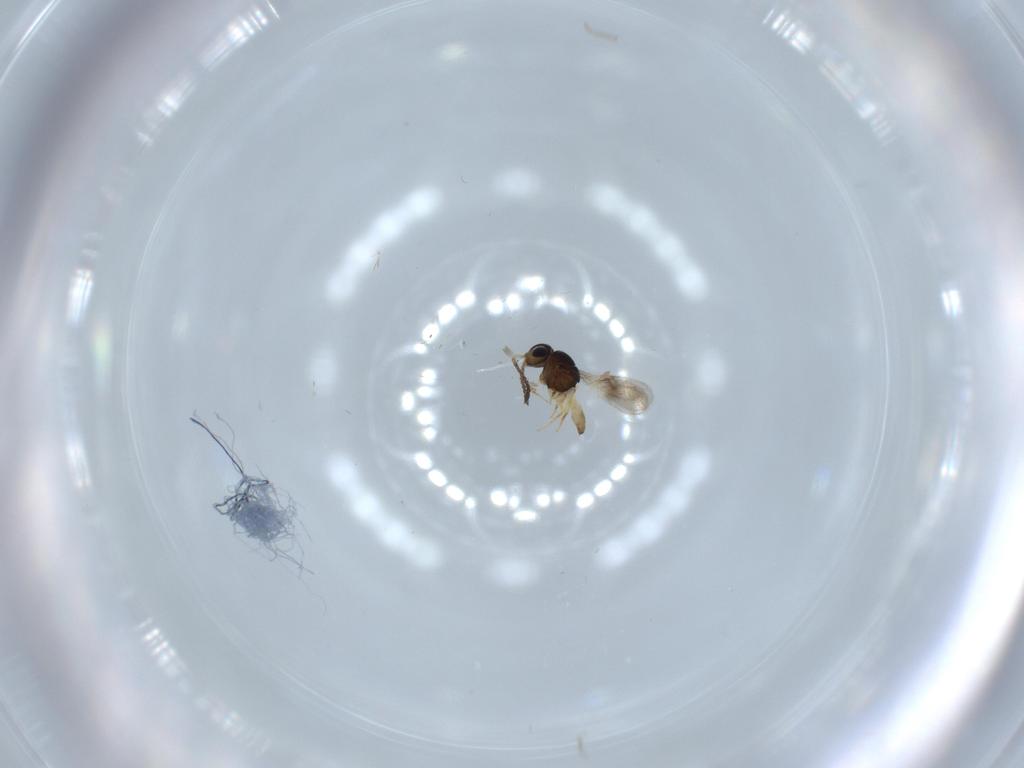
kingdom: Animalia
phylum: Arthropoda
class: Insecta
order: Hymenoptera
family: Scelionidae
